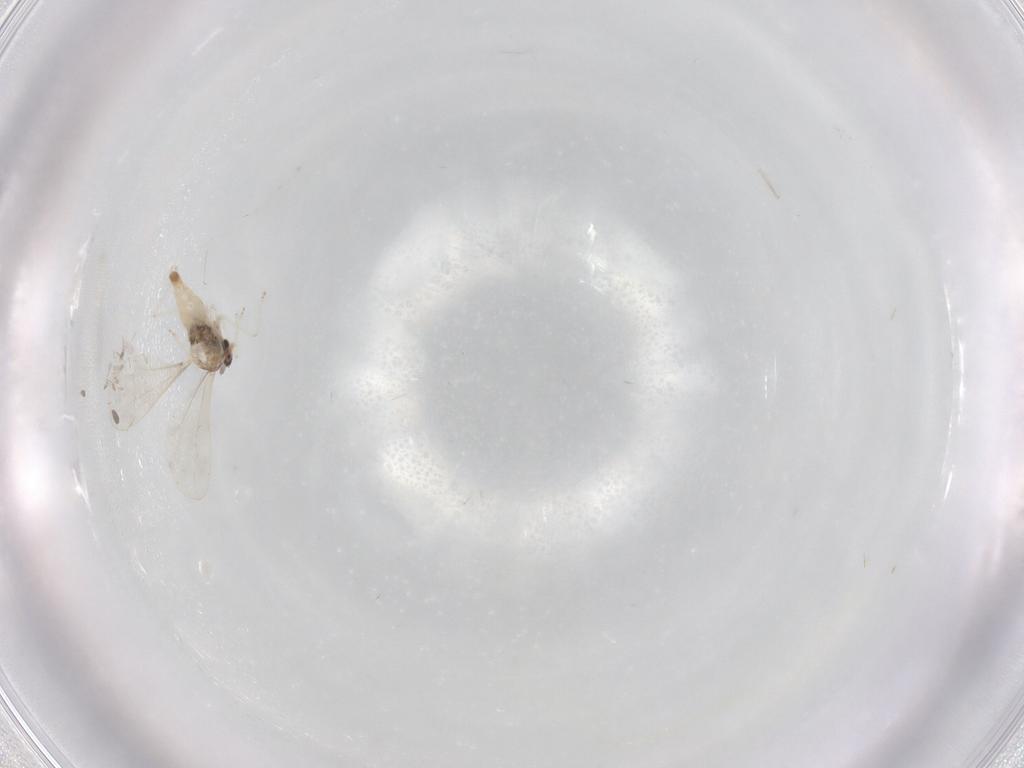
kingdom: Animalia
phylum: Arthropoda
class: Insecta
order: Diptera
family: Cecidomyiidae
